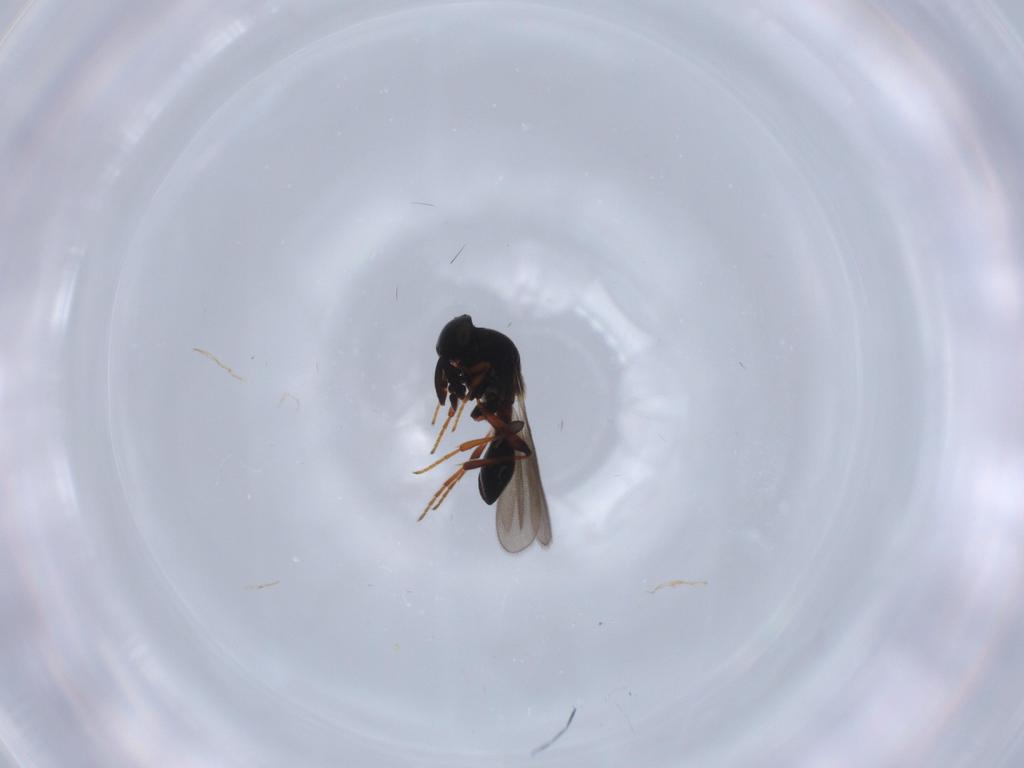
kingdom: Animalia
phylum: Arthropoda
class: Insecta
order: Hymenoptera
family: Platygastridae
